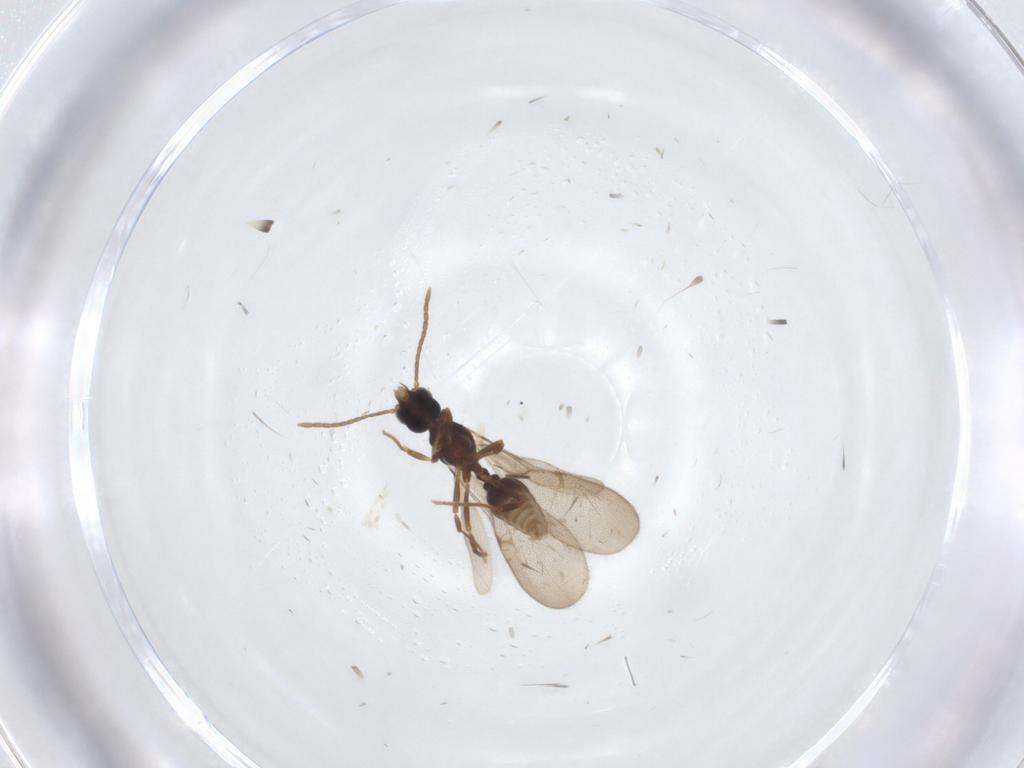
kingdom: Animalia
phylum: Arthropoda
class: Insecta
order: Hymenoptera
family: Formicidae
